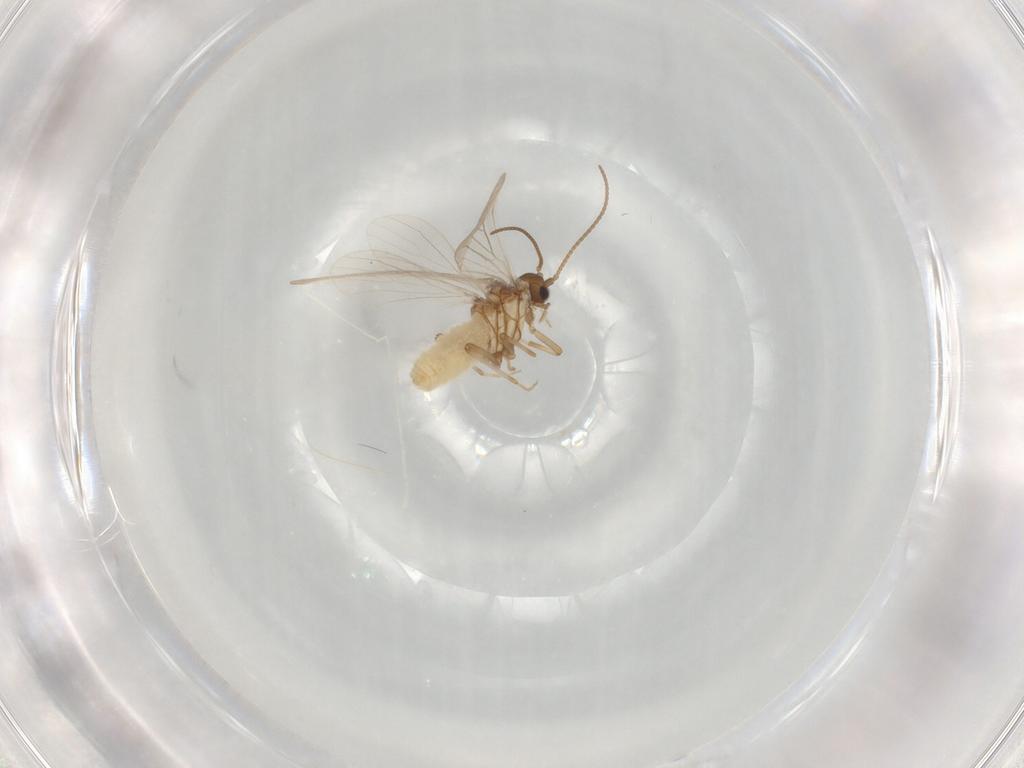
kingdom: Animalia
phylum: Arthropoda
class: Insecta
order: Neuroptera
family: Coniopterygidae
